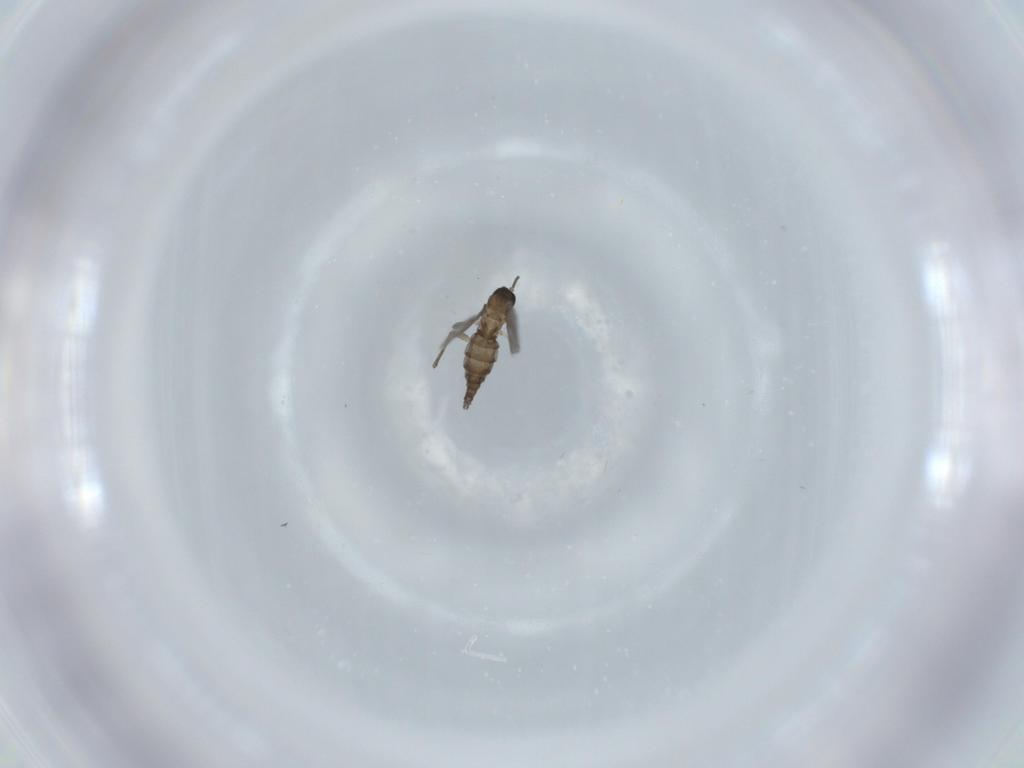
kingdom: Animalia
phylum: Arthropoda
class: Insecta
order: Diptera
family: Sciaridae
